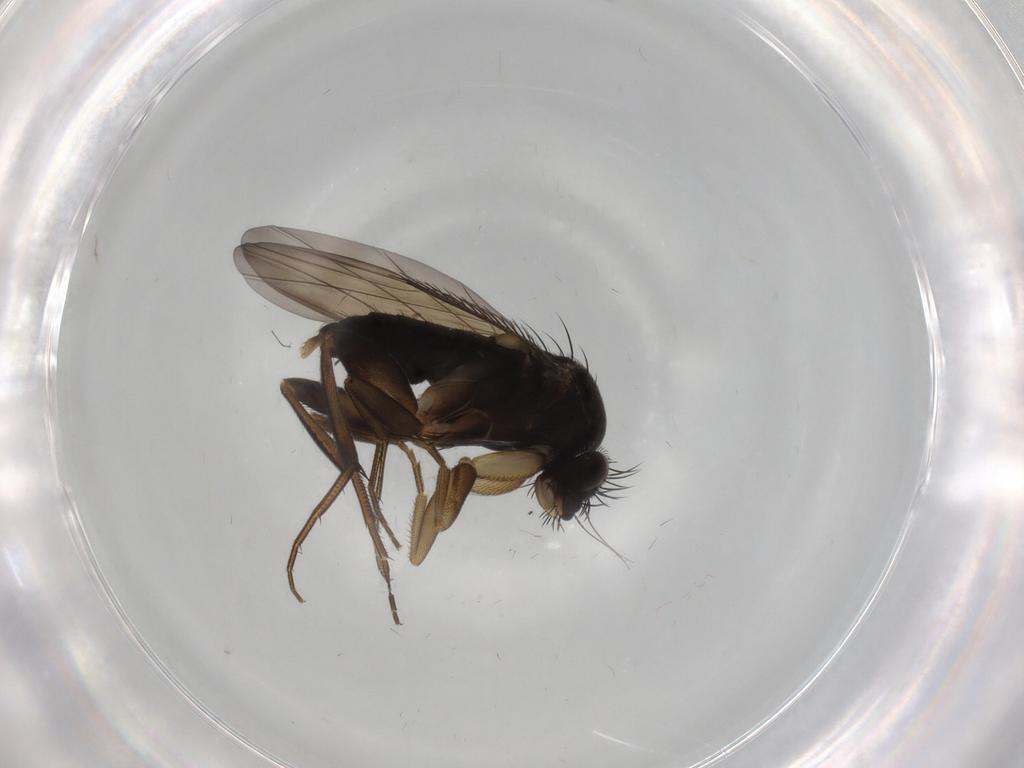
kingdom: Animalia
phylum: Arthropoda
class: Insecta
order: Diptera
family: Phoridae
